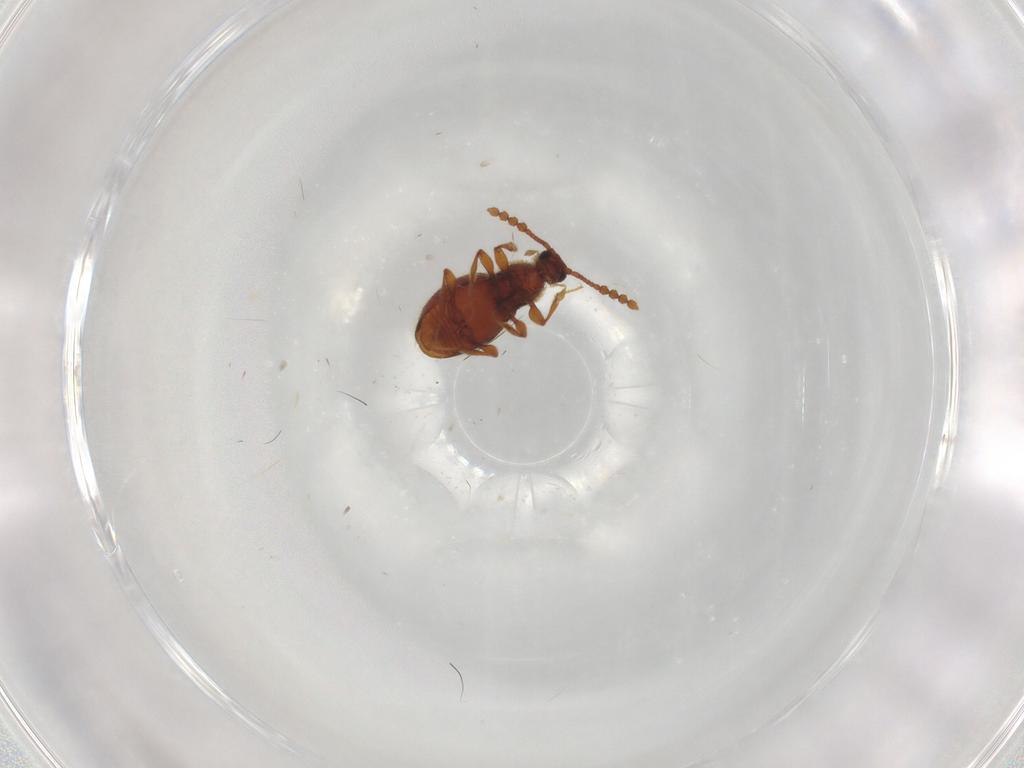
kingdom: Animalia
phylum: Arthropoda
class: Insecta
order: Coleoptera
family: Staphylinidae
